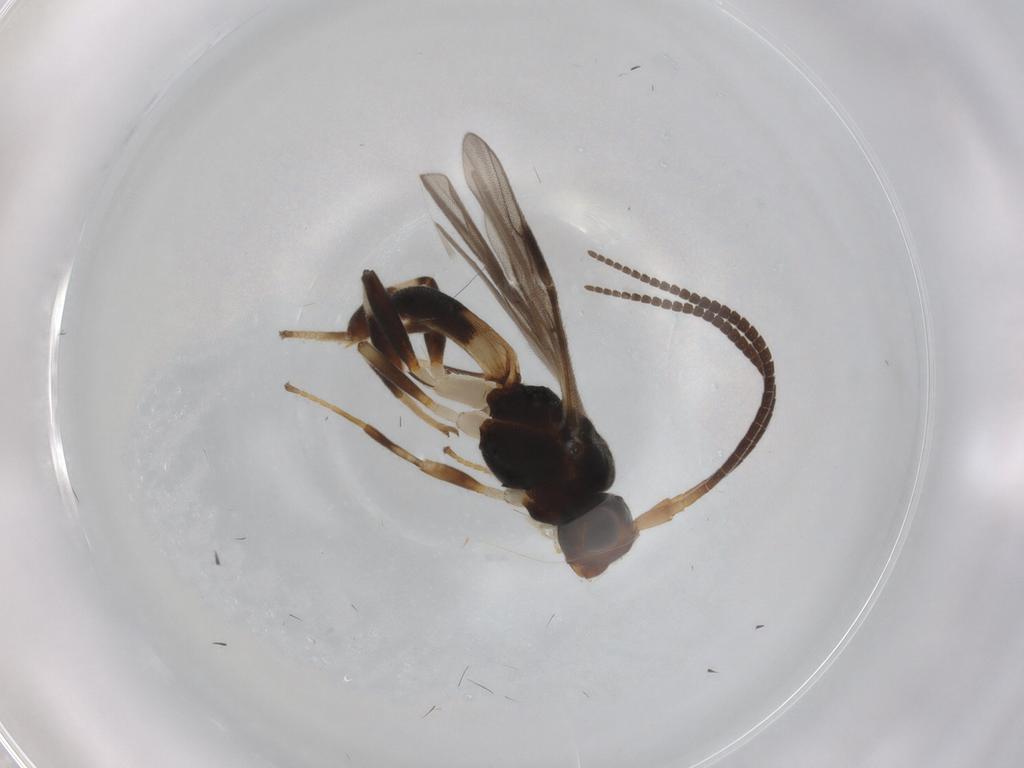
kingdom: Animalia
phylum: Arthropoda
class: Insecta
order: Hymenoptera
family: Braconidae
